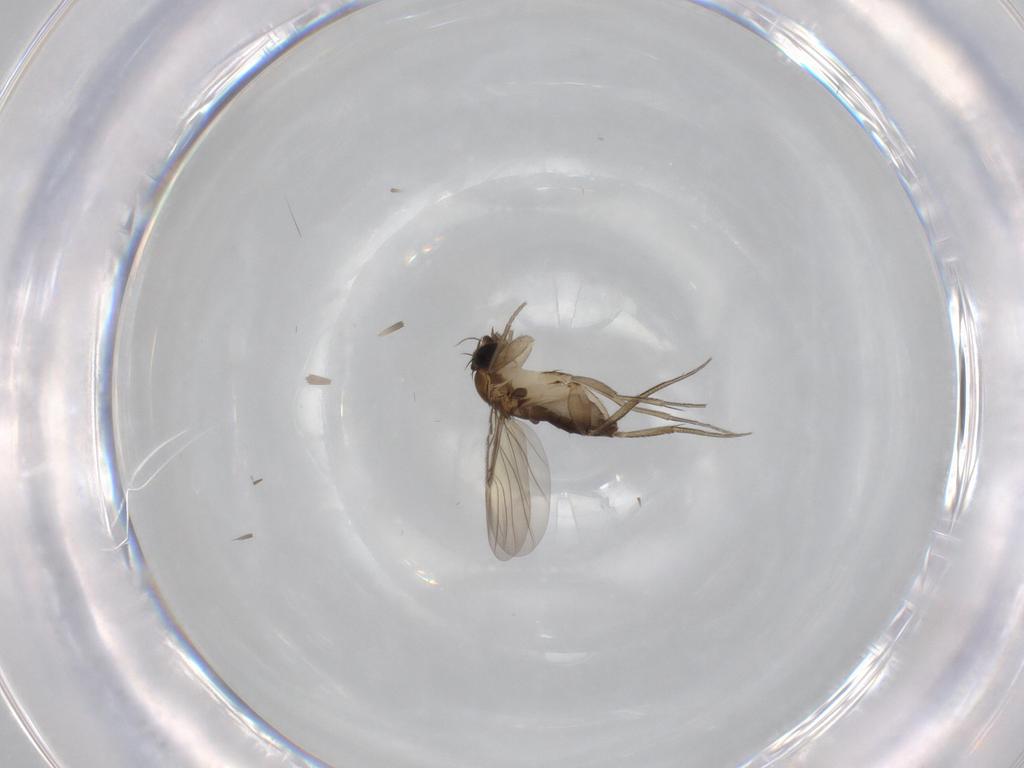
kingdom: Animalia
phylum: Arthropoda
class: Insecta
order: Diptera
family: Phoridae
